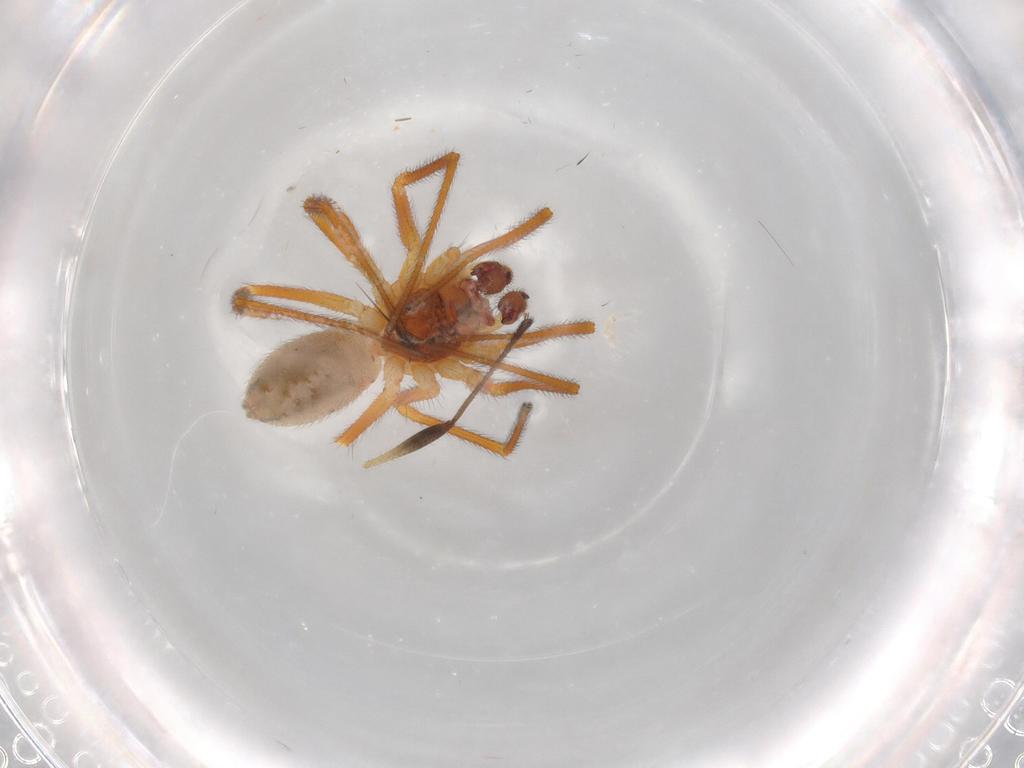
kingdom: Animalia
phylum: Arthropoda
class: Arachnida
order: Araneae
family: Linyphiidae
